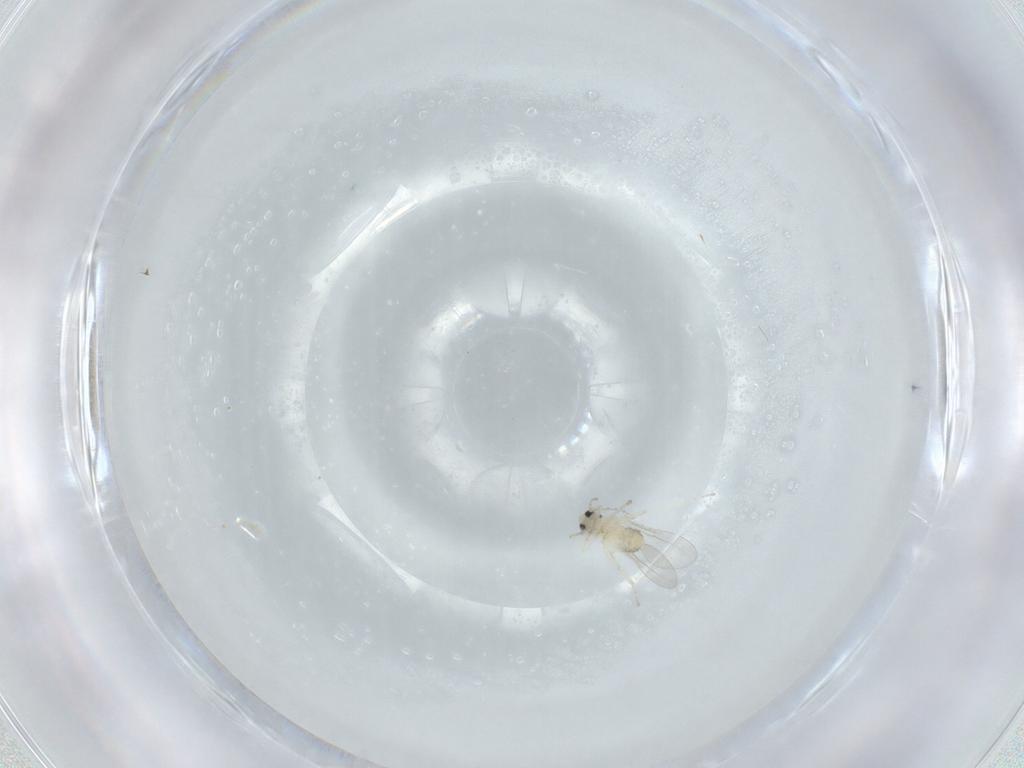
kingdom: Animalia
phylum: Arthropoda
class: Insecta
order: Diptera
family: Cecidomyiidae
